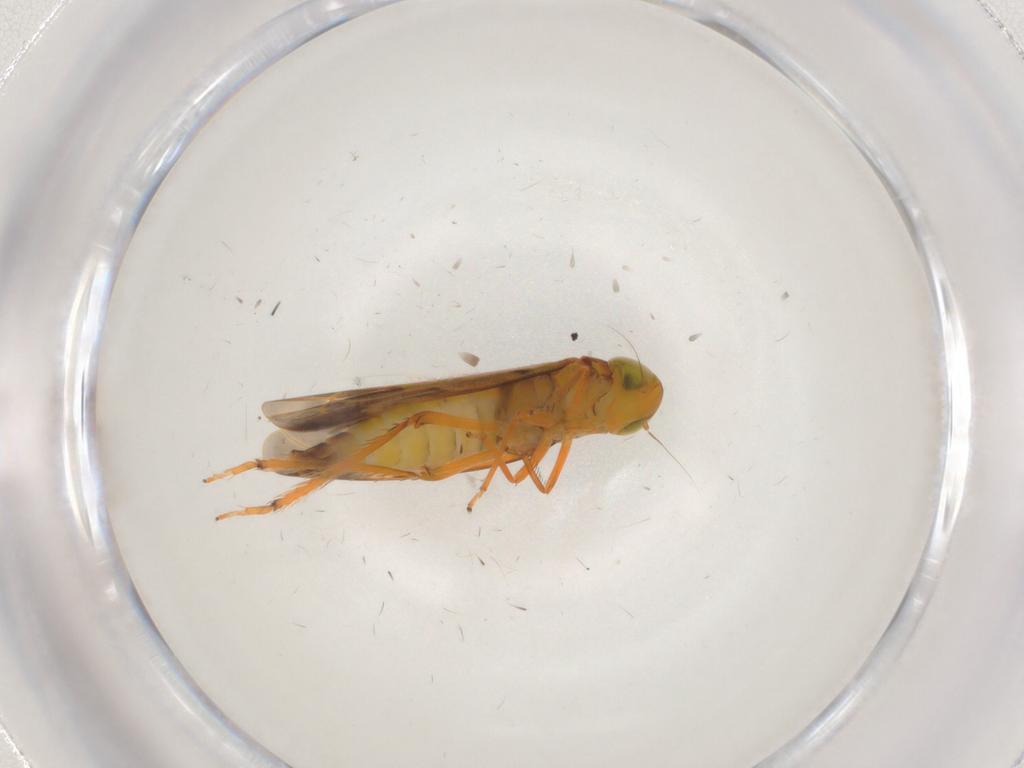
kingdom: Animalia
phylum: Arthropoda
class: Insecta
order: Hemiptera
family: Cicadellidae
